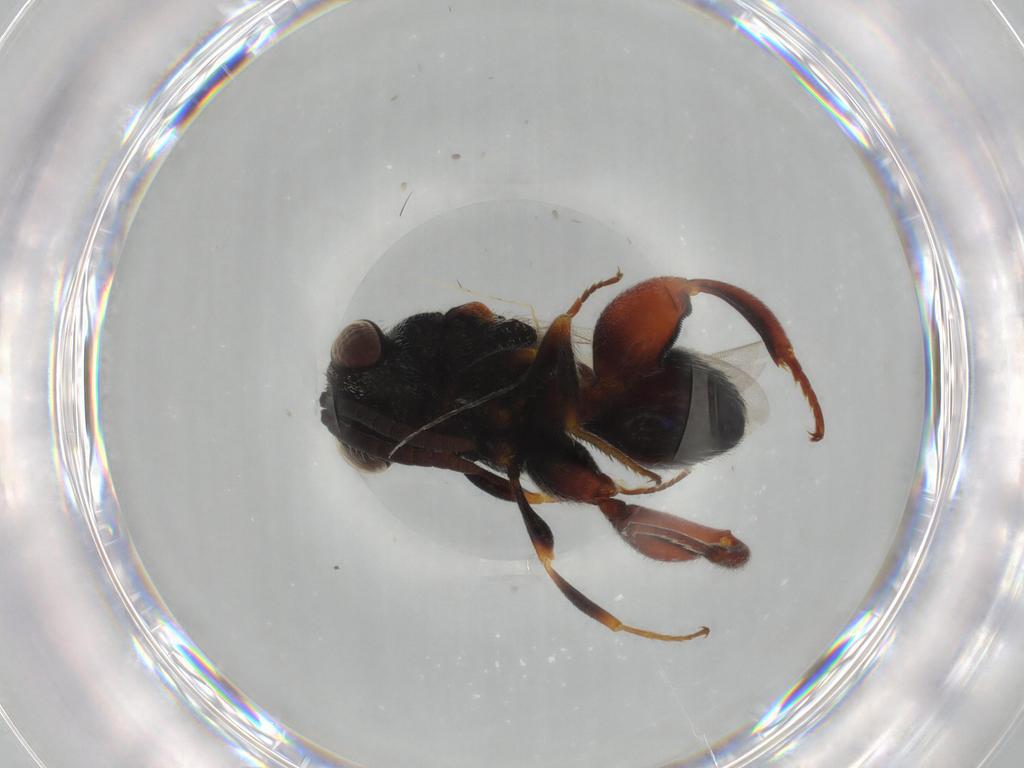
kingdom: Animalia
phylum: Arthropoda
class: Insecta
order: Hymenoptera
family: Chalcididae
